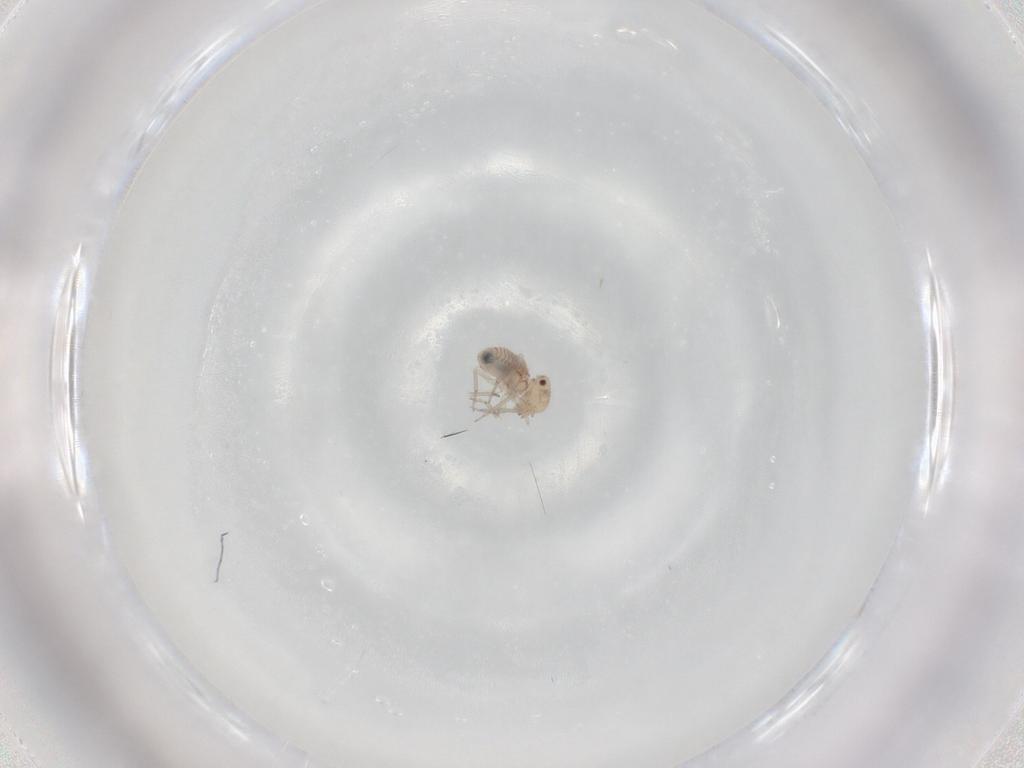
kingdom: Animalia
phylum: Arthropoda
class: Insecta
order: Psocodea
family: Lachesillidae
